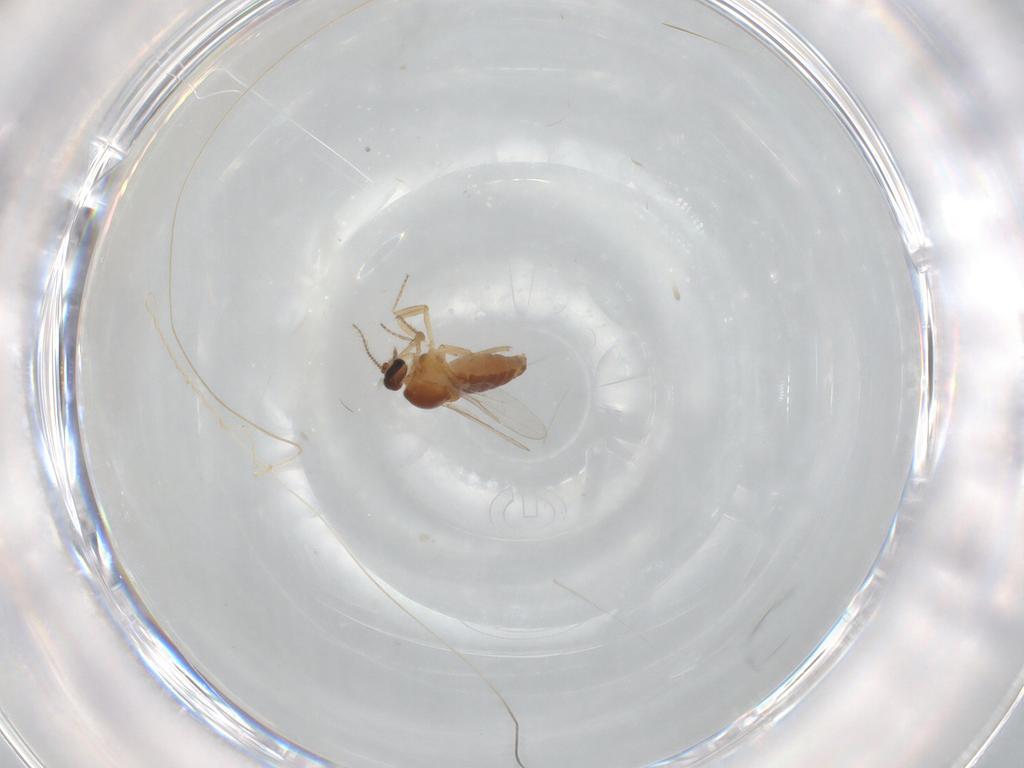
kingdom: Animalia
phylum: Arthropoda
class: Insecta
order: Diptera
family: Ceratopogonidae
